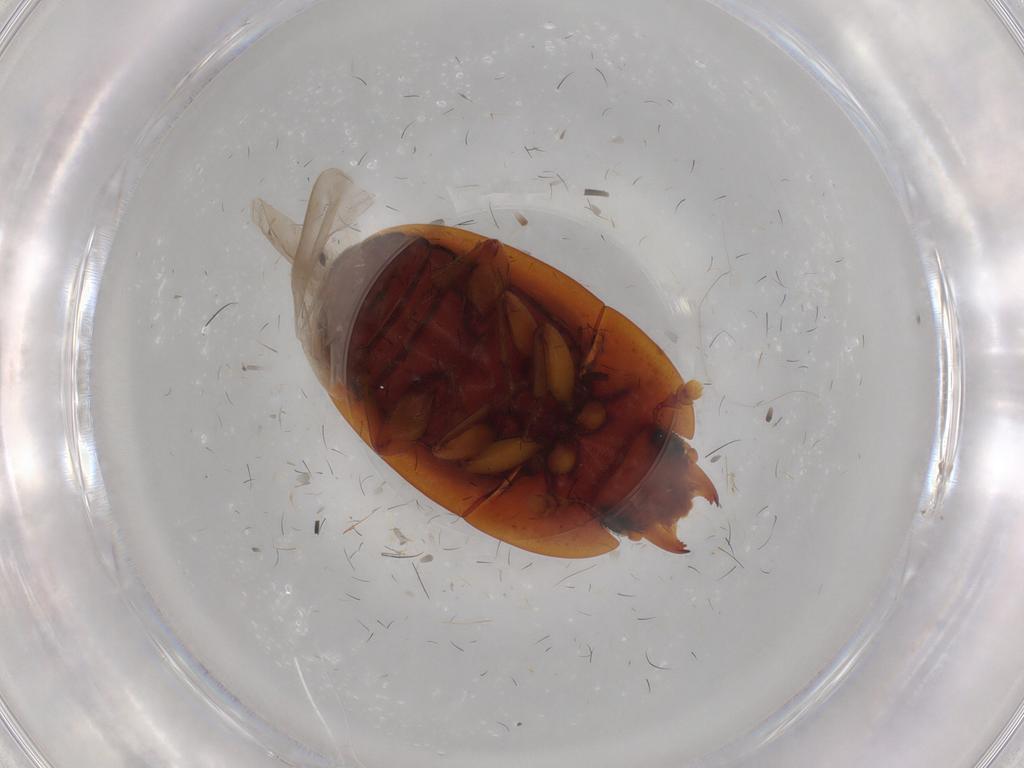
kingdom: Animalia
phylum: Arthropoda
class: Insecta
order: Coleoptera
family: Nitidulidae
